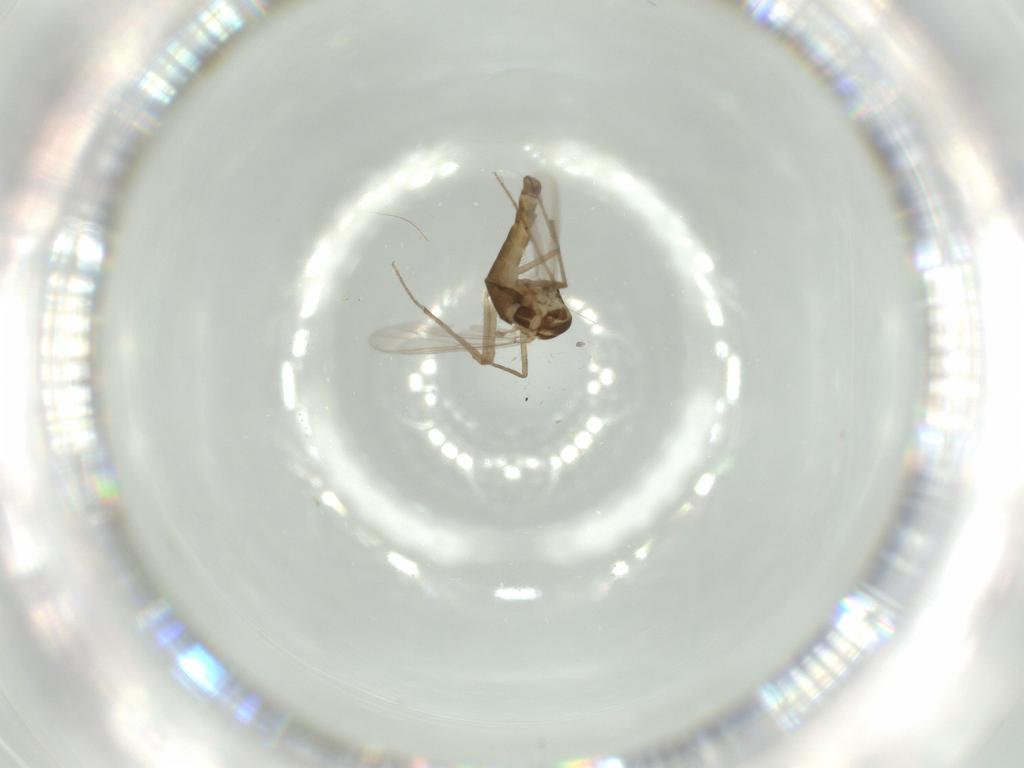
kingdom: Animalia
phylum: Arthropoda
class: Insecta
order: Diptera
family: Chironomidae
